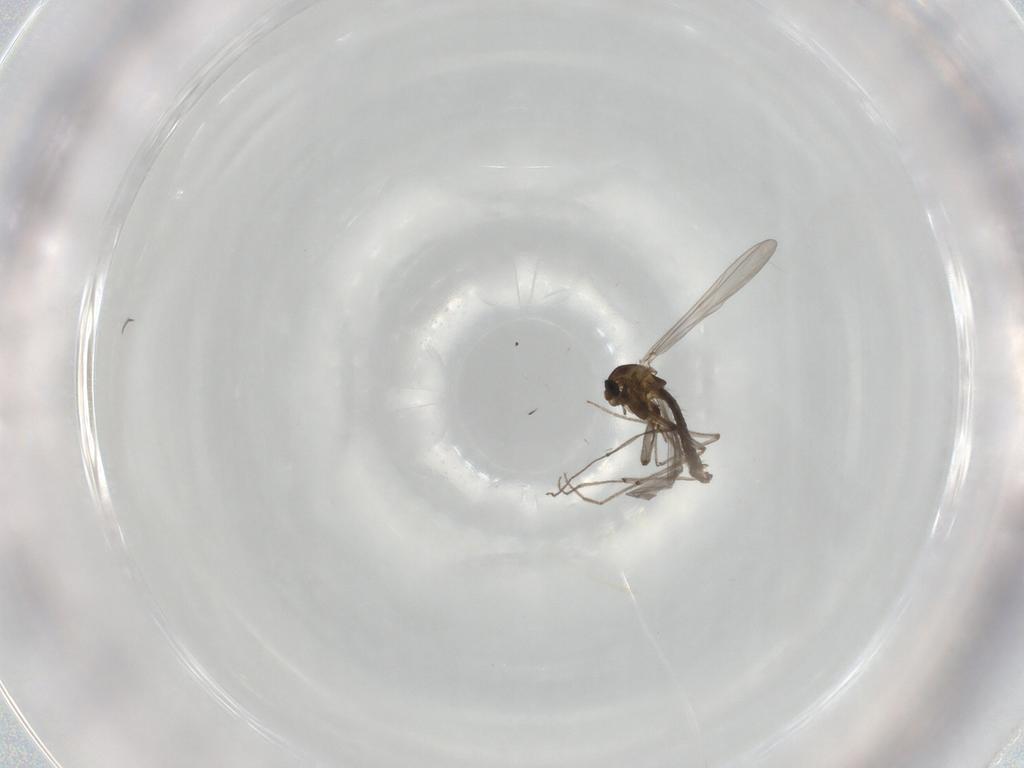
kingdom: Animalia
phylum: Arthropoda
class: Insecta
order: Diptera
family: Chironomidae
